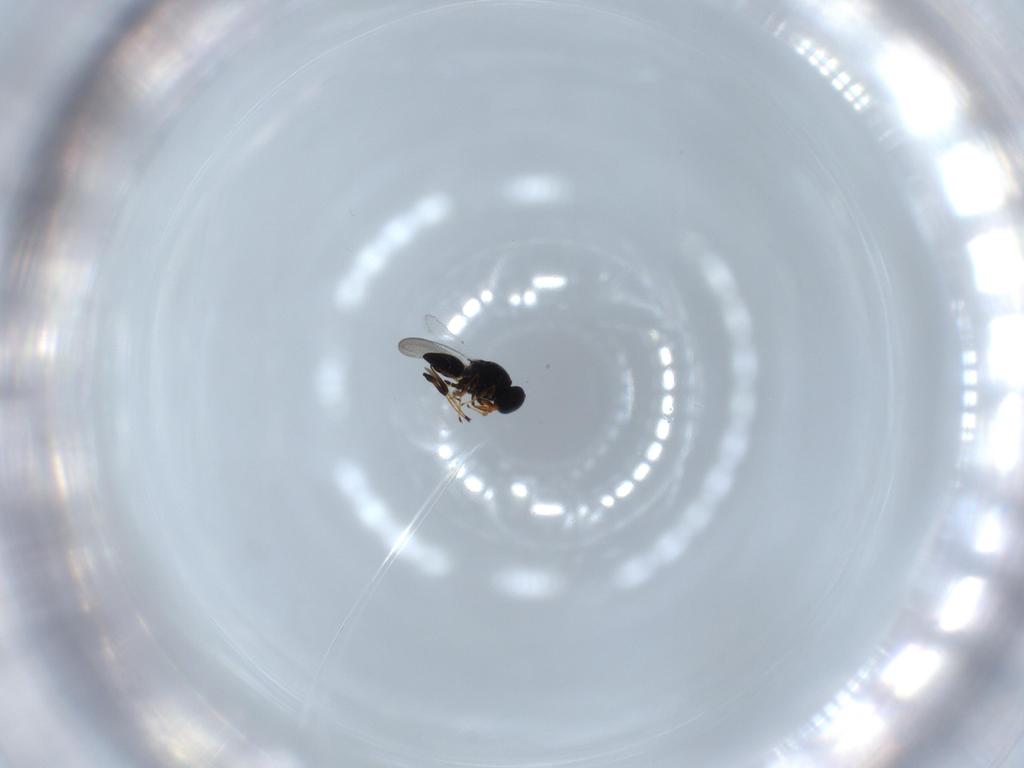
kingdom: Animalia
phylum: Arthropoda
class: Insecta
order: Hymenoptera
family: Platygastridae
